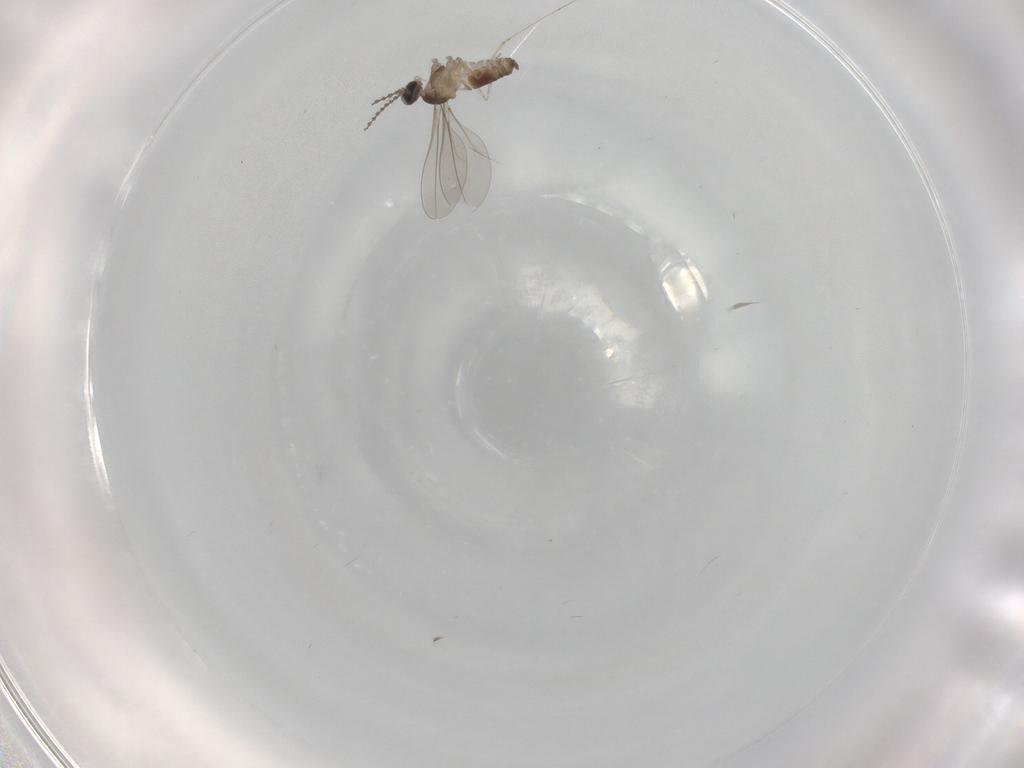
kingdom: Animalia
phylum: Arthropoda
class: Insecta
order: Diptera
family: Cecidomyiidae
